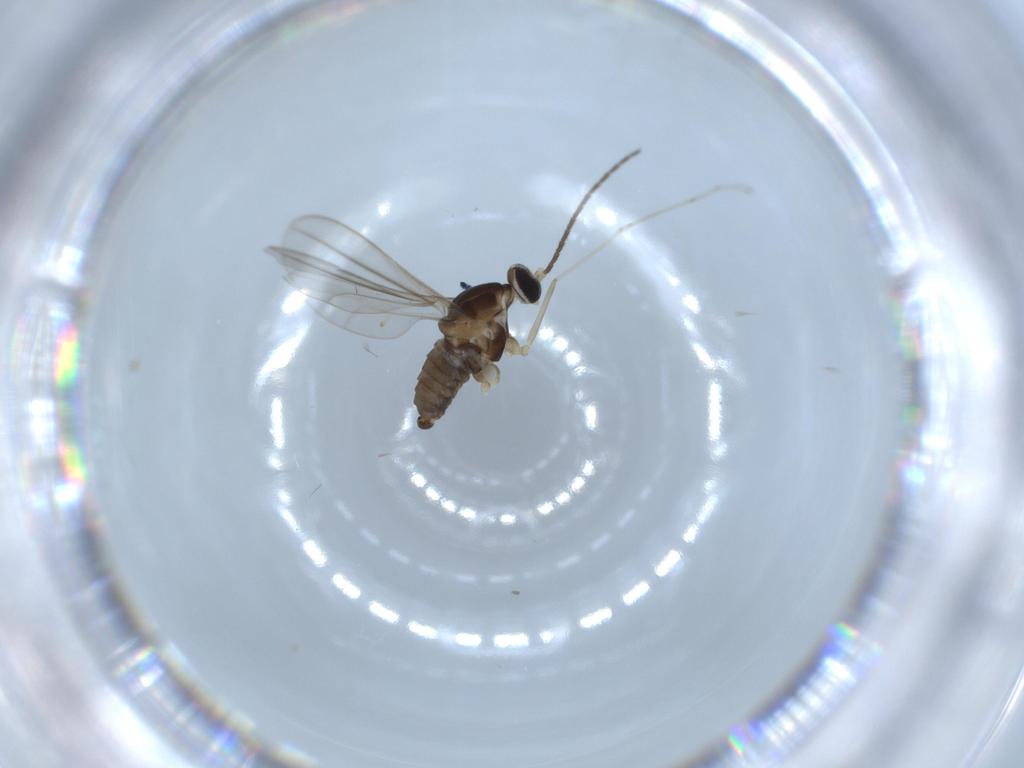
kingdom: Animalia
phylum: Arthropoda
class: Insecta
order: Diptera
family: Cecidomyiidae
